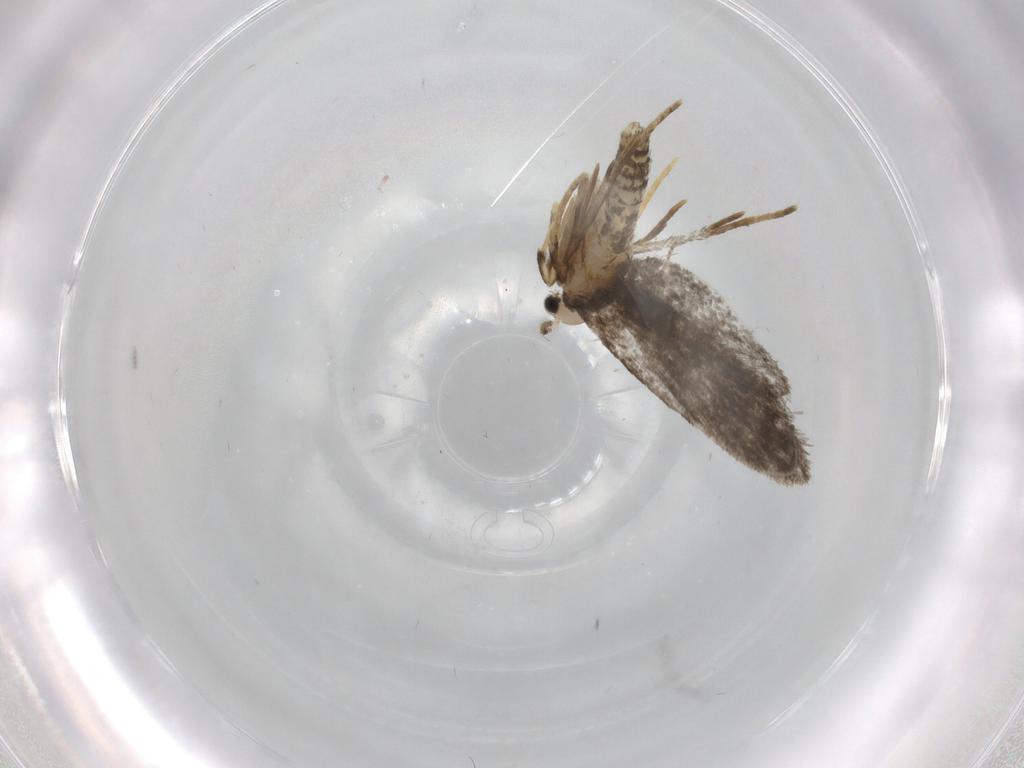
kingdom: Animalia
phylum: Arthropoda
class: Insecta
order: Lepidoptera
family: Psychidae
